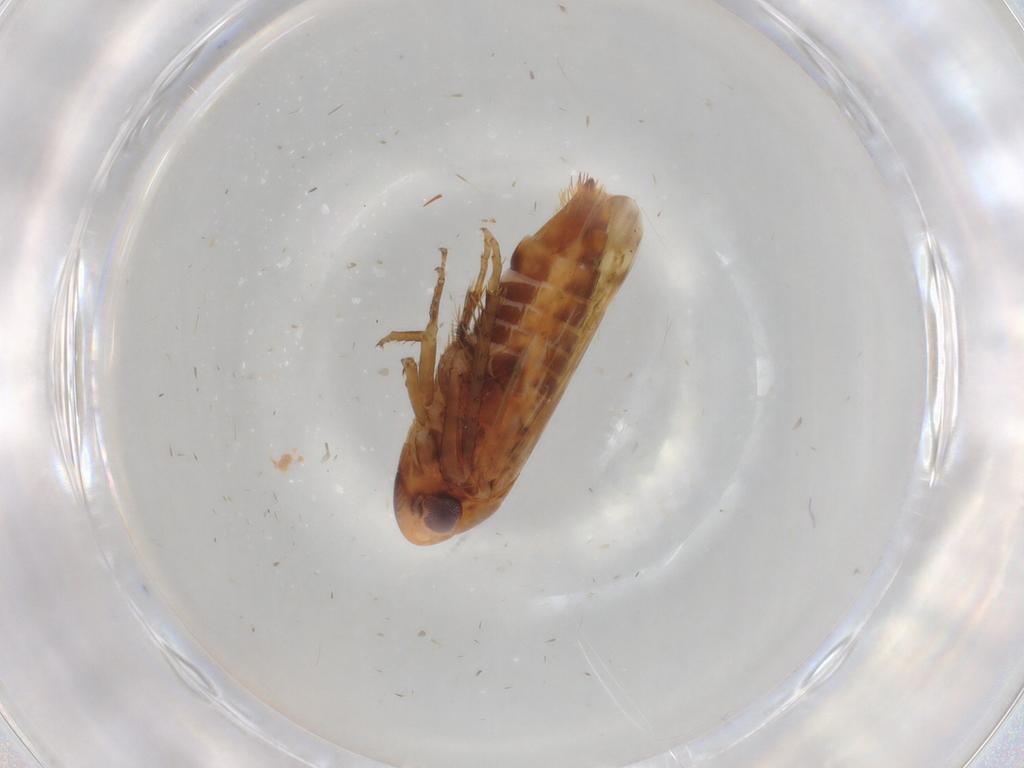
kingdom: Animalia
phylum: Arthropoda
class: Insecta
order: Hemiptera
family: Cicadellidae
